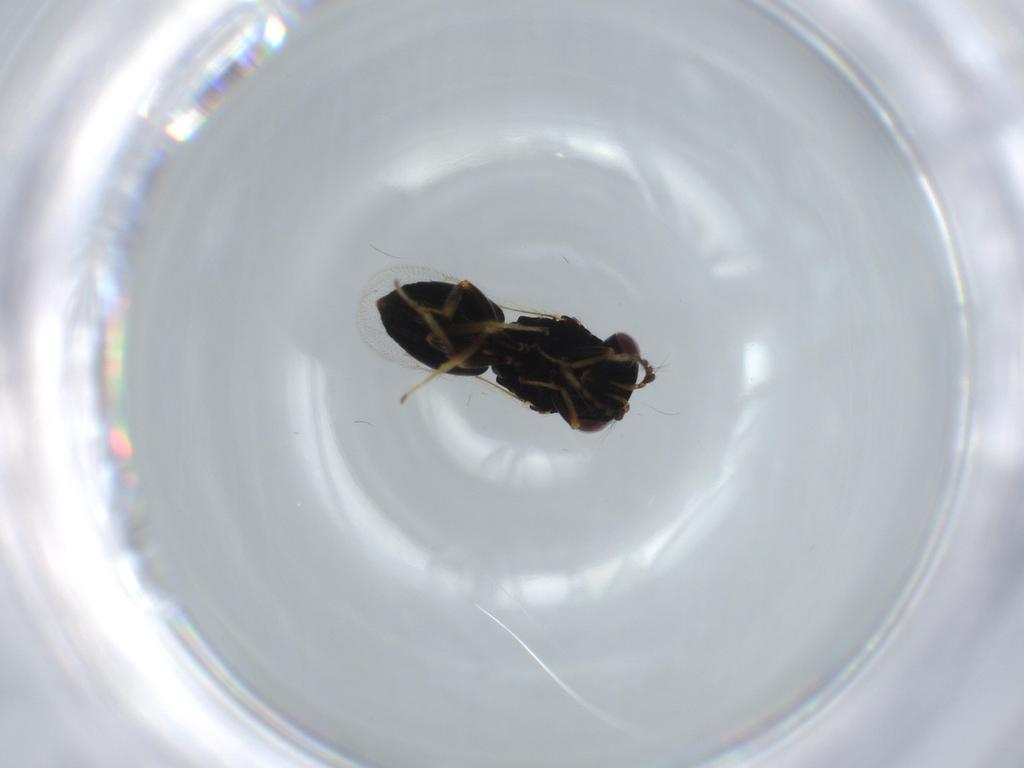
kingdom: Animalia
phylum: Arthropoda
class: Insecta
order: Hymenoptera
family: Pteromalidae
